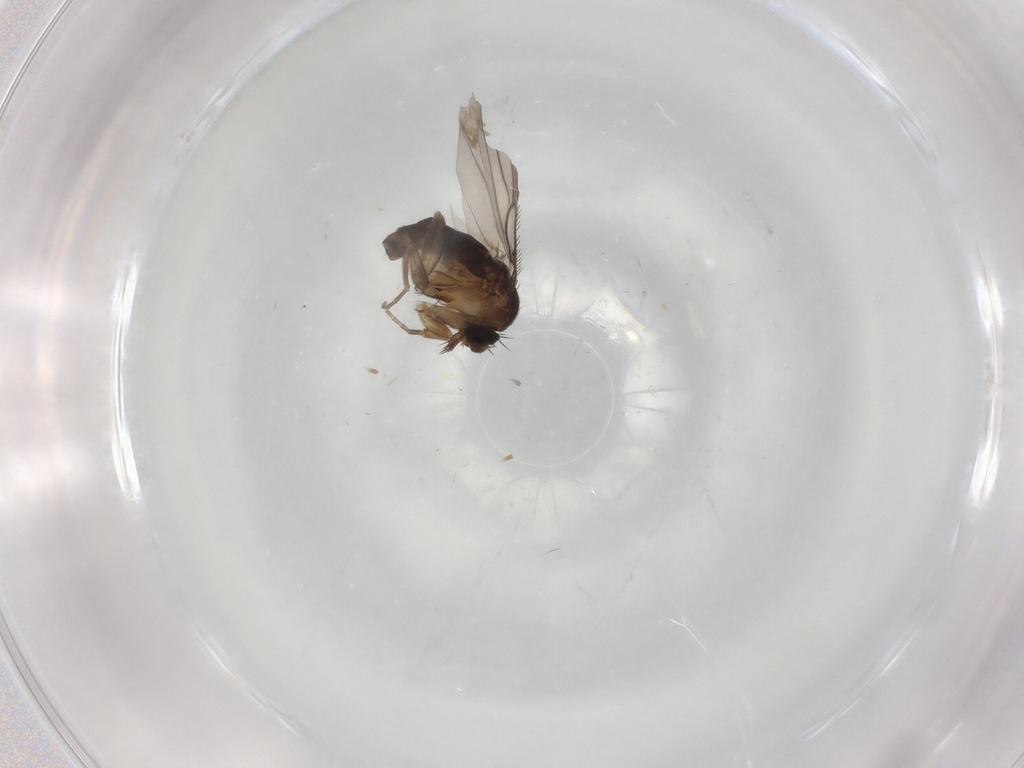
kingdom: Animalia
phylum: Arthropoda
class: Insecta
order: Diptera
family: Phoridae
